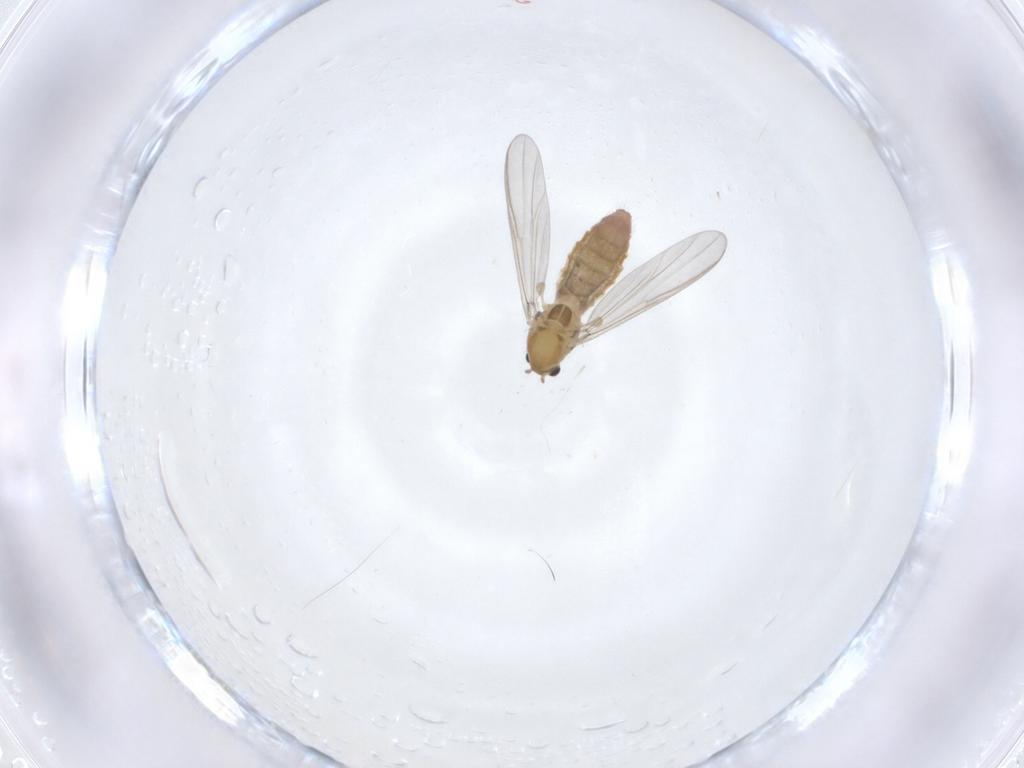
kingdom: Animalia
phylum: Arthropoda
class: Insecta
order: Diptera
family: Chironomidae
